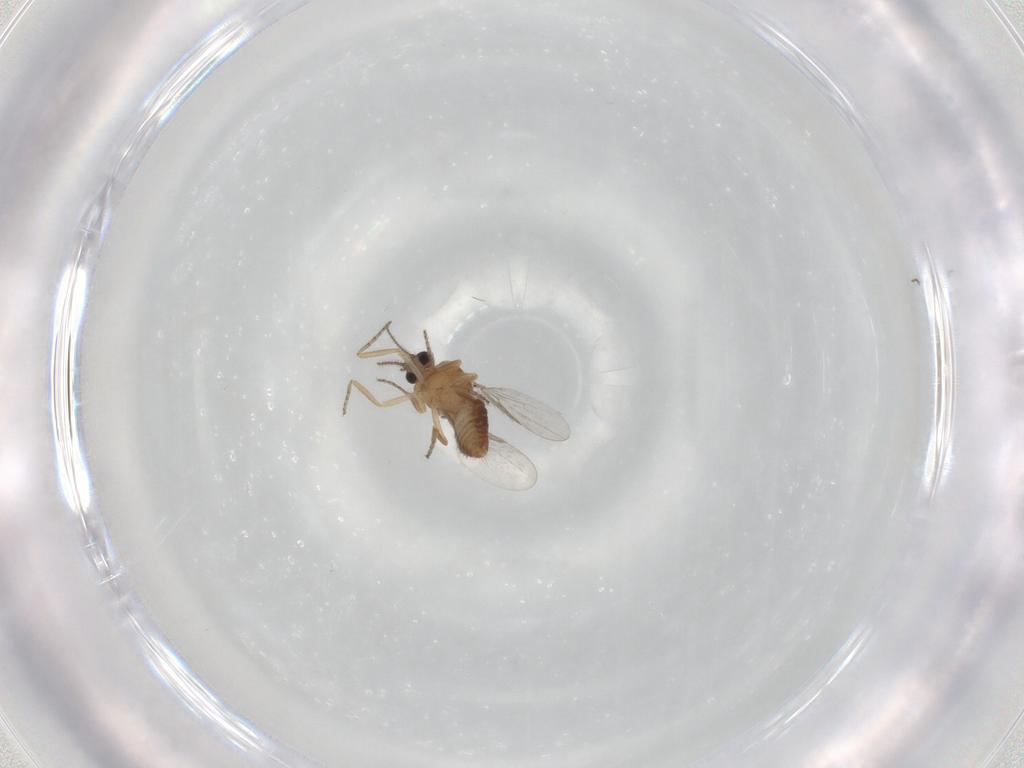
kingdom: Animalia
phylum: Arthropoda
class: Insecta
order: Diptera
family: Ceratopogonidae
